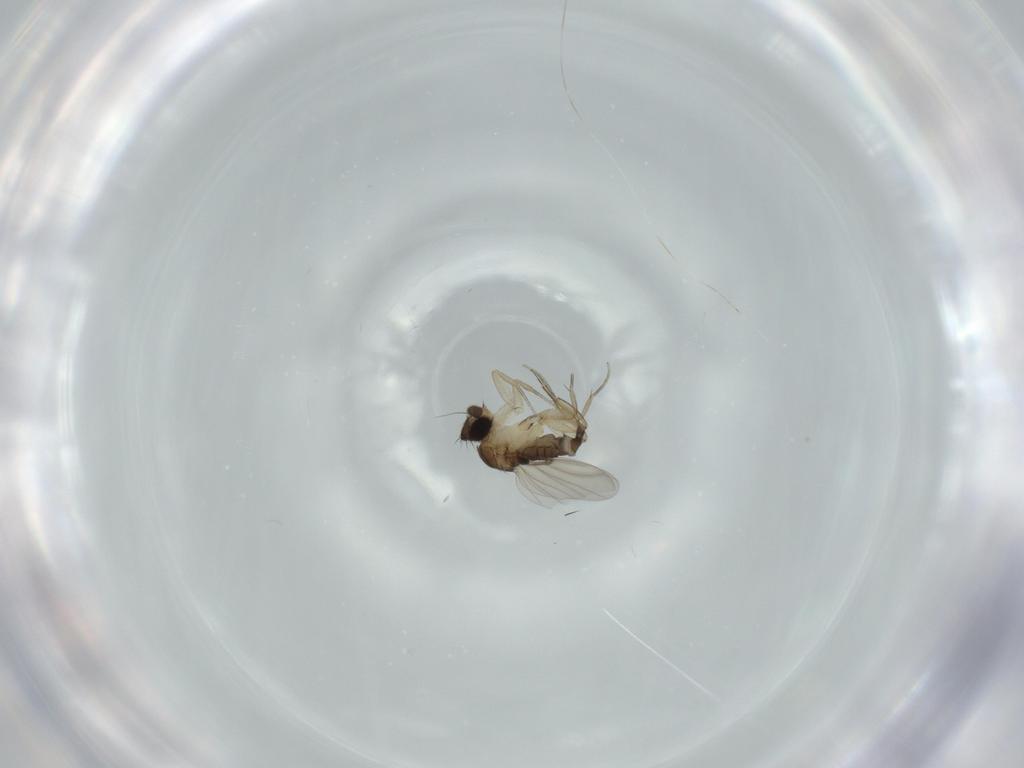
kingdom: Animalia
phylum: Arthropoda
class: Insecta
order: Diptera
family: Phoridae
